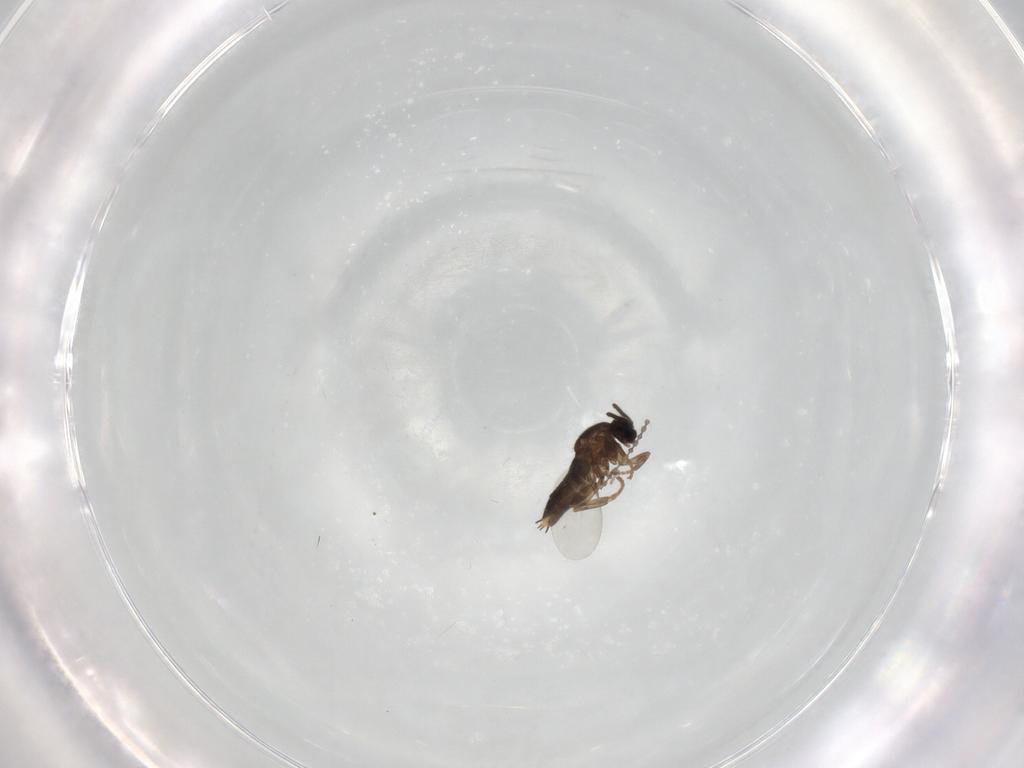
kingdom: Animalia
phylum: Arthropoda
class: Insecta
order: Diptera
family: Scatopsidae
